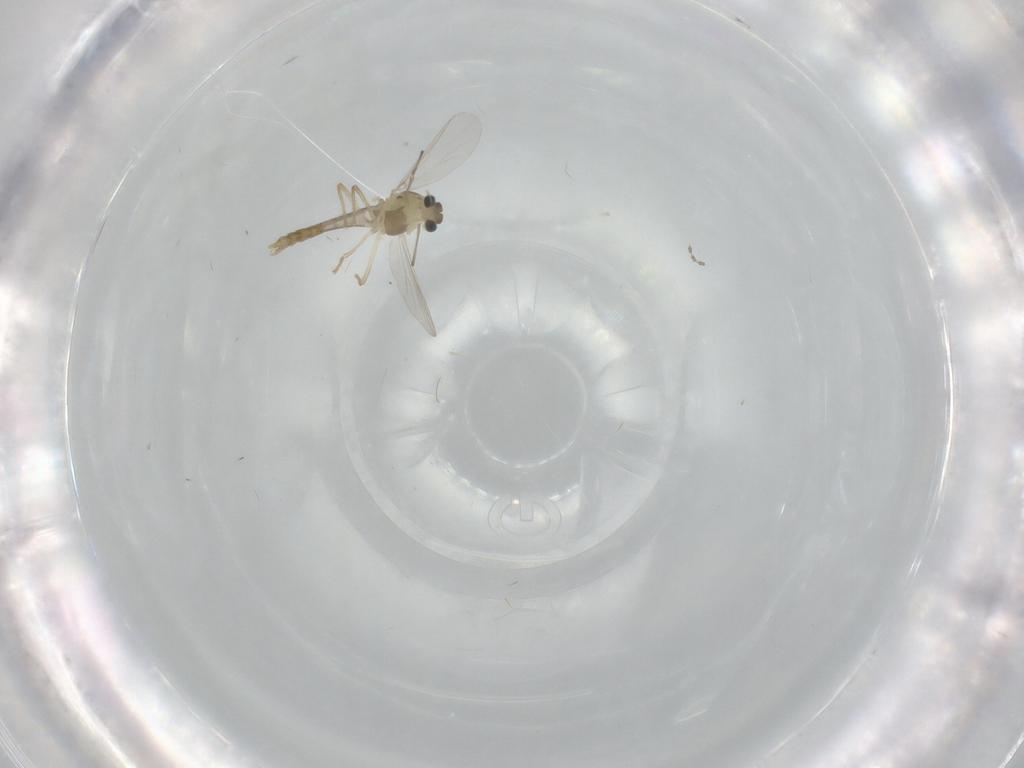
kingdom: Animalia
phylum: Arthropoda
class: Insecta
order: Diptera
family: Chironomidae
